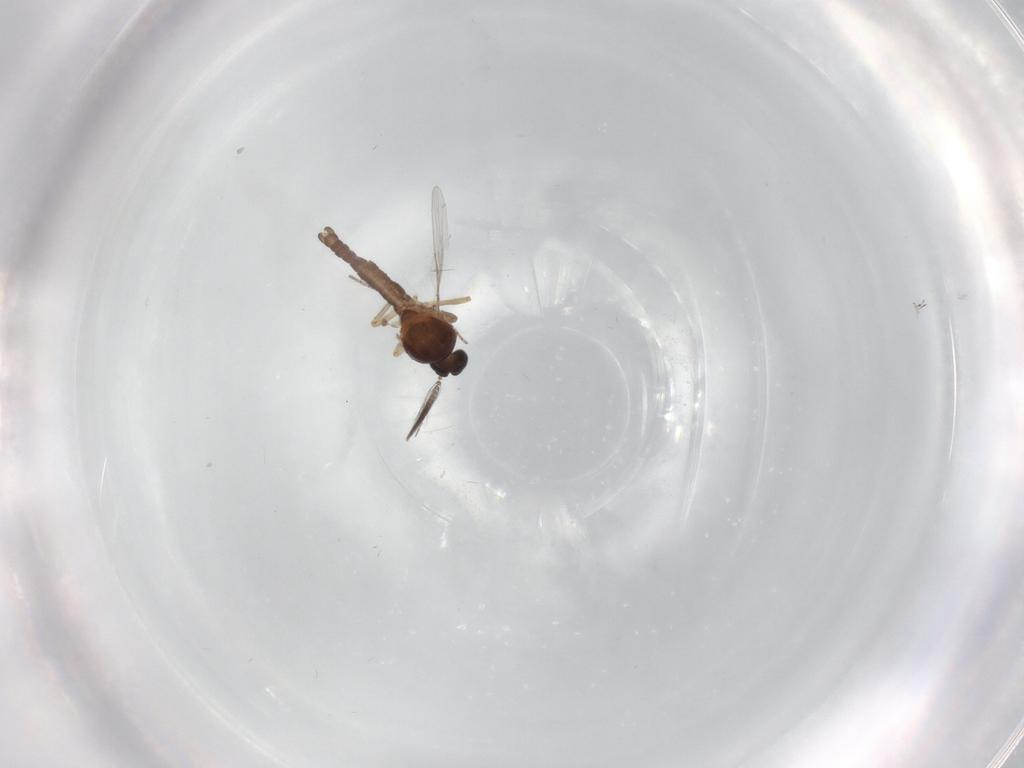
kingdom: Animalia
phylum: Arthropoda
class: Insecta
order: Diptera
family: Ceratopogonidae
